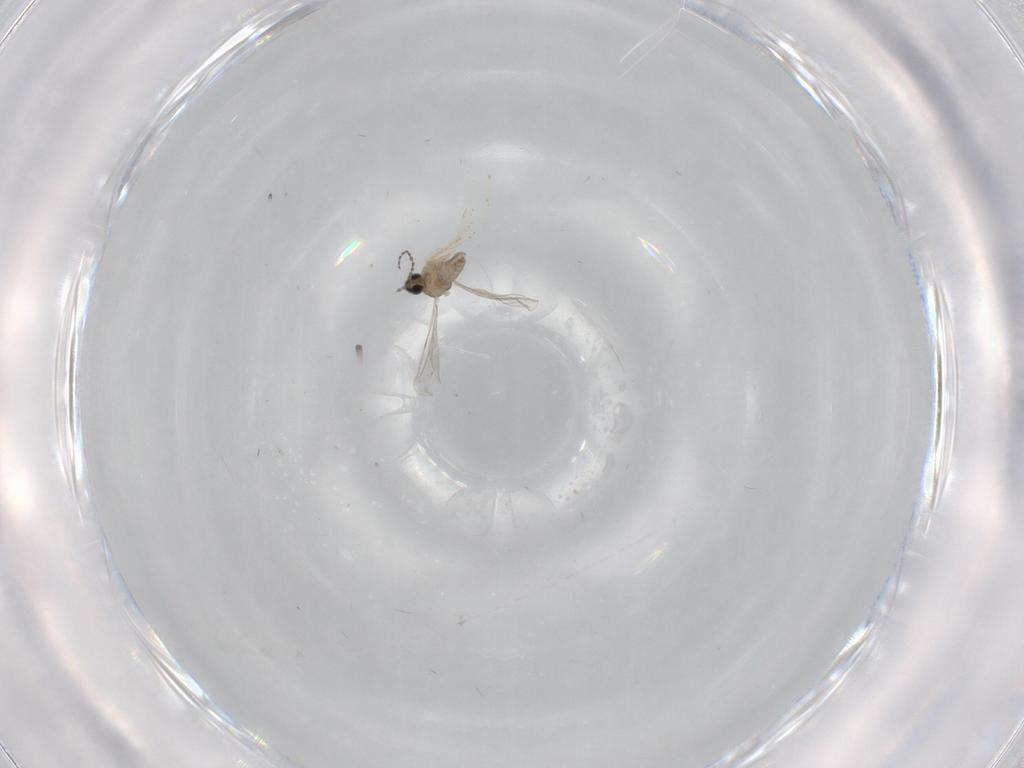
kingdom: Animalia
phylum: Arthropoda
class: Insecta
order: Diptera
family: Cecidomyiidae
